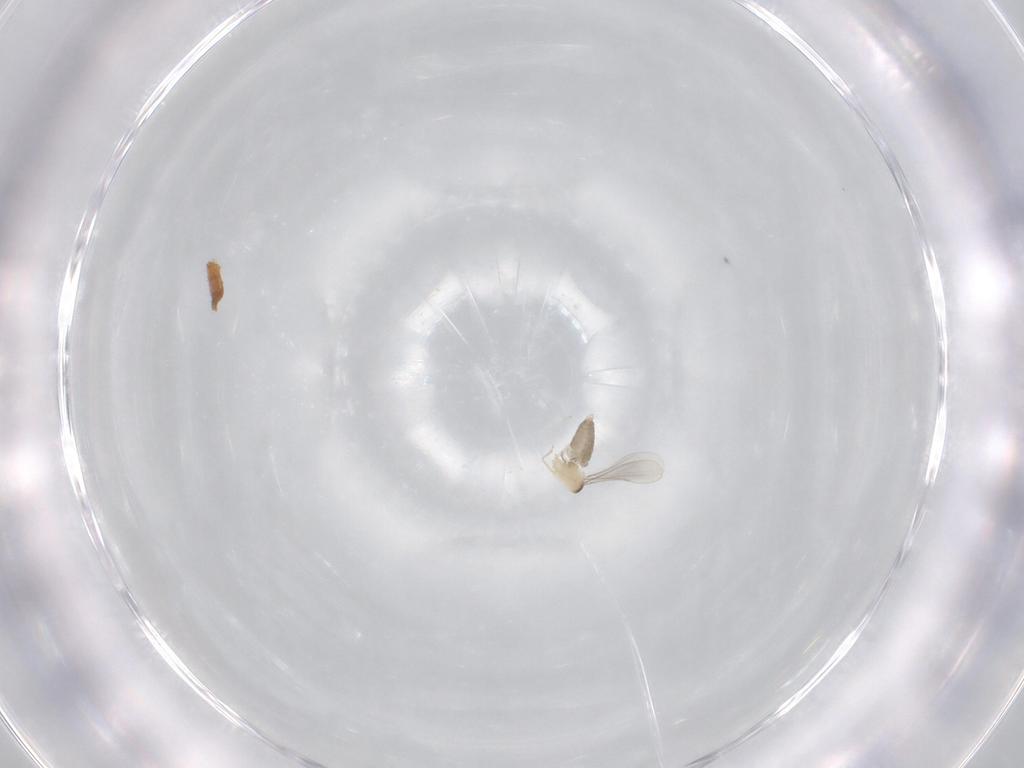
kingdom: Animalia
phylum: Arthropoda
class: Insecta
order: Diptera
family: Cecidomyiidae
